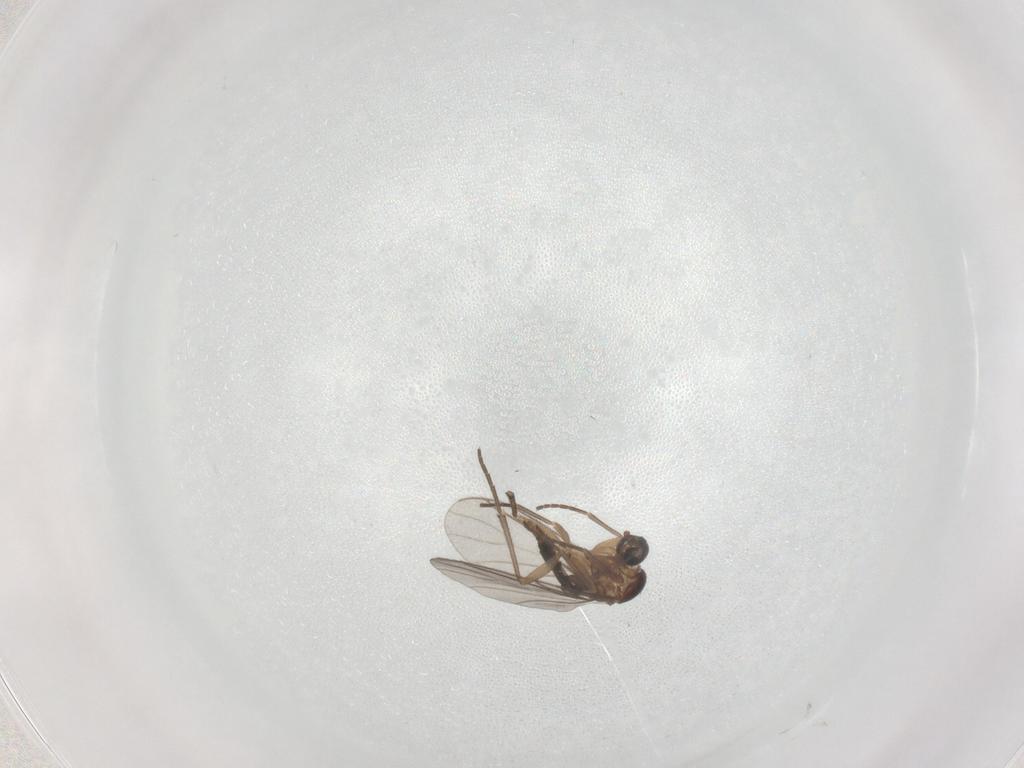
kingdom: Animalia
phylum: Arthropoda
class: Insecta
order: Diptera
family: Sciaridae
